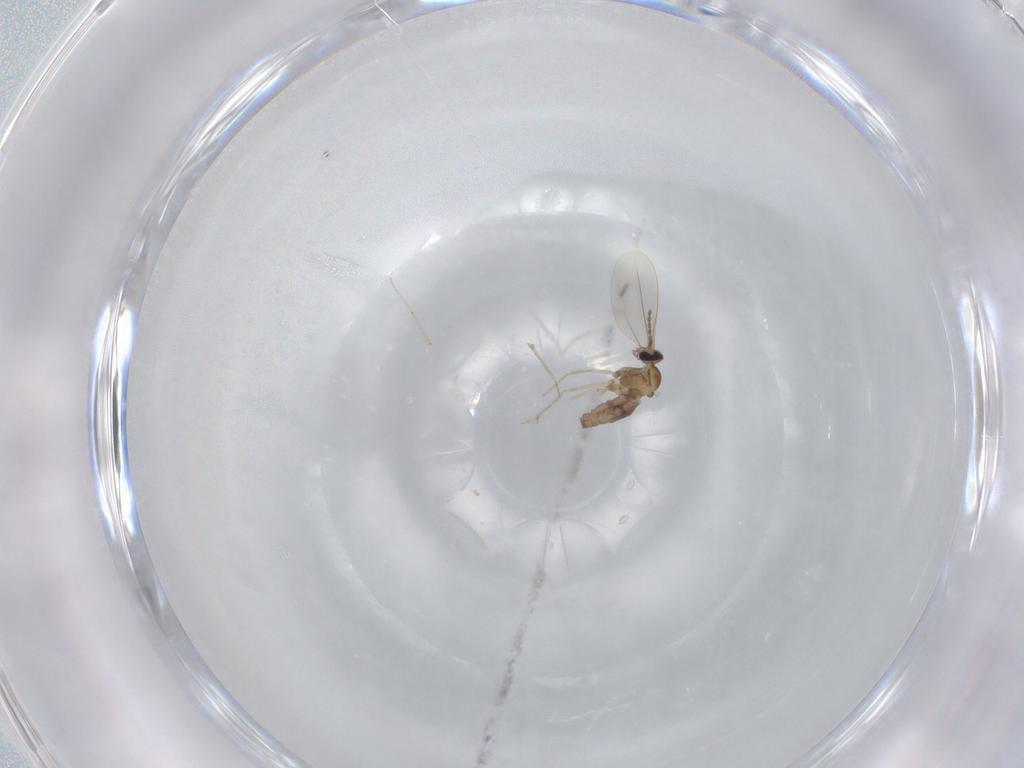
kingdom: Animalia
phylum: Arthropoda
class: Insecta
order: Diptera
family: Cecidomyiidae
